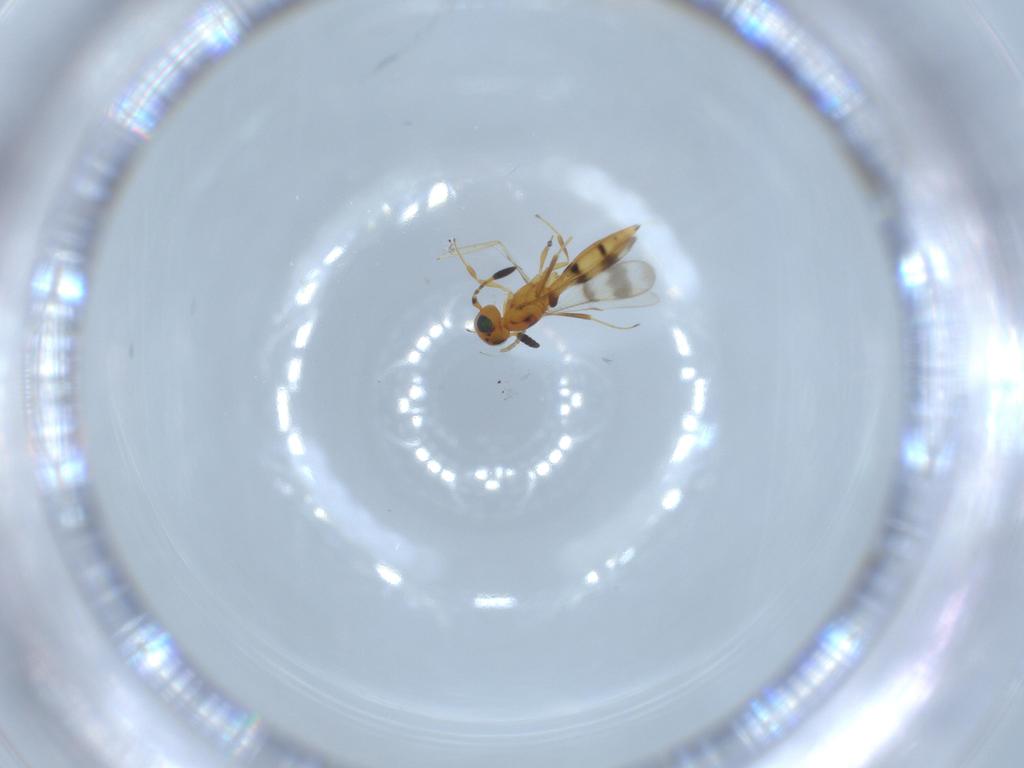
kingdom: Animalia
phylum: Arthropoda
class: Insecta
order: Hymenoptera
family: Scelionidae
